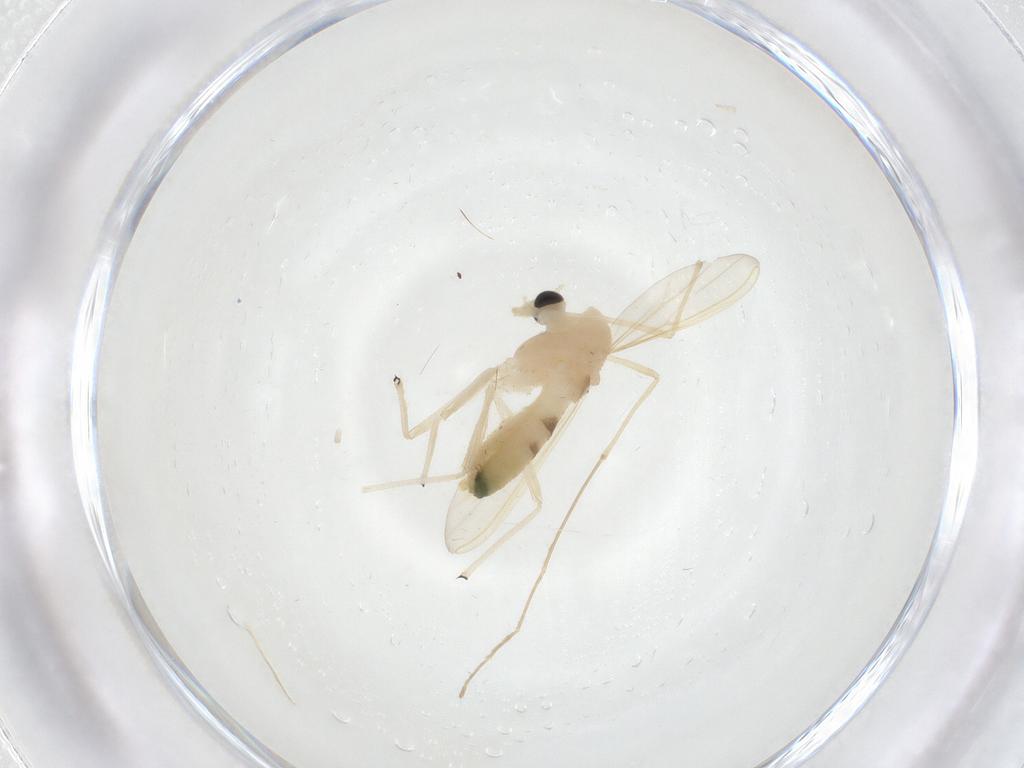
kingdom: Animalia
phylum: Arthropoda
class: Insecta
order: Diptera
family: Chironomidae
